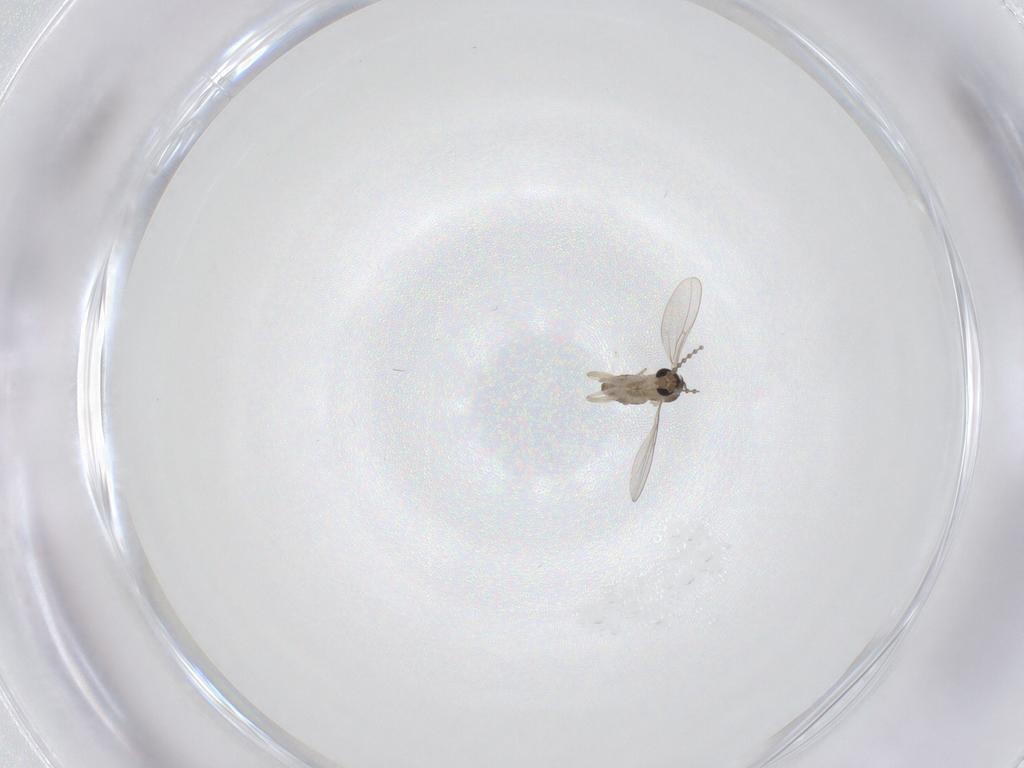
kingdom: Animalia
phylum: Arthropoda
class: Insecta
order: Diptera
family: Cecidomyiidae
